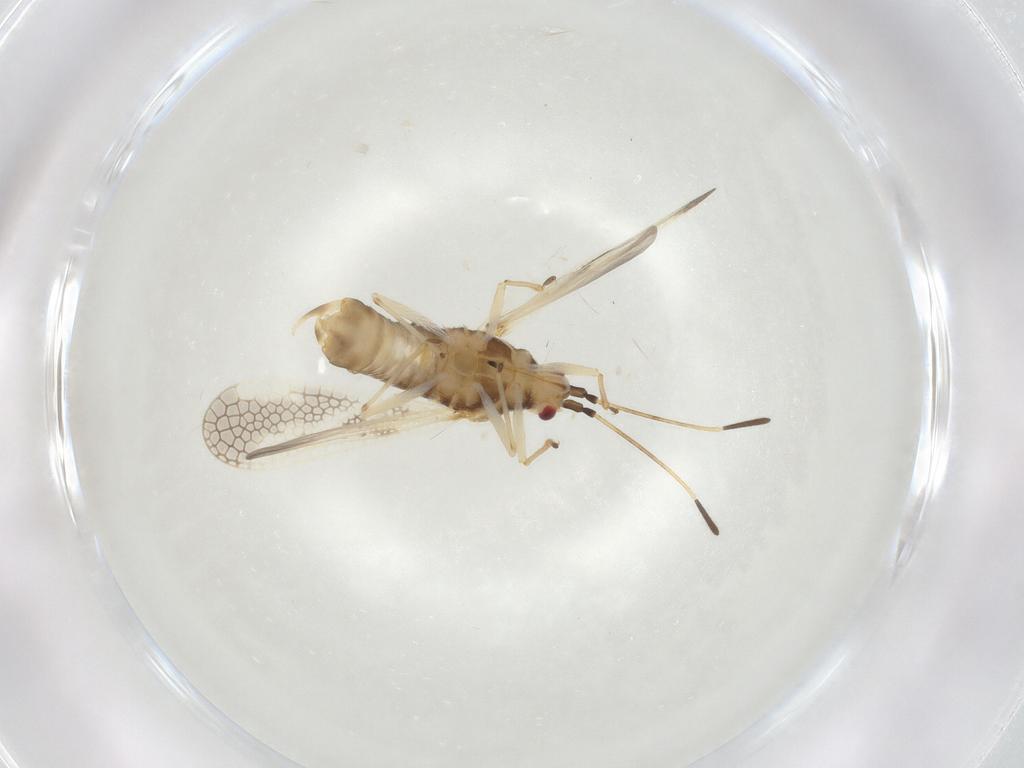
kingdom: Animalia
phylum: Arthropoda
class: Insecta
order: Hemiptera
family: Tingidae
